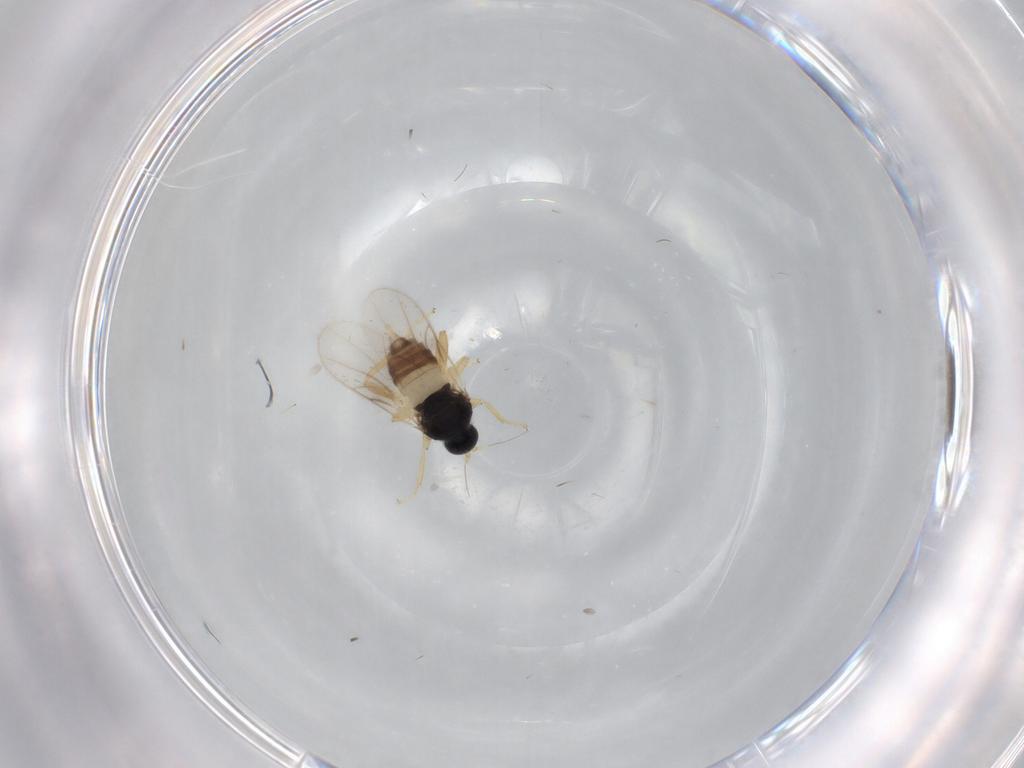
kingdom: Animalia
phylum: Arthropoda
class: Insecta
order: Diptera
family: Hybotidae
